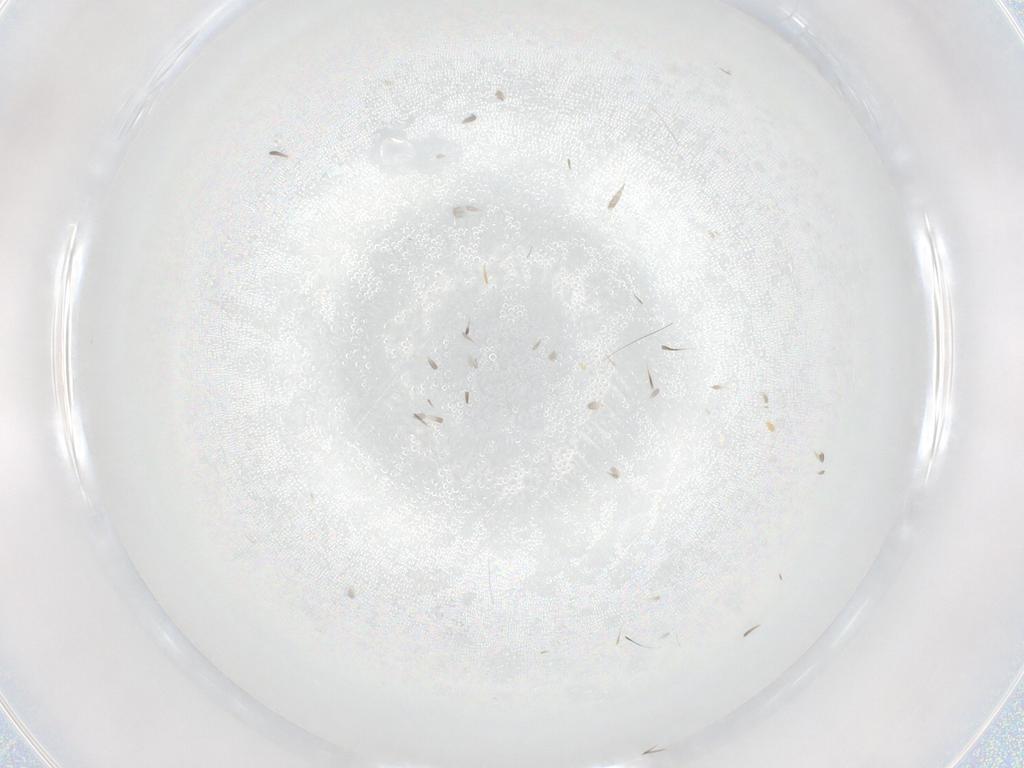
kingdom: Animalia
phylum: Arthropoda
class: Insecta
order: Diptera
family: Cecidomyiidae
